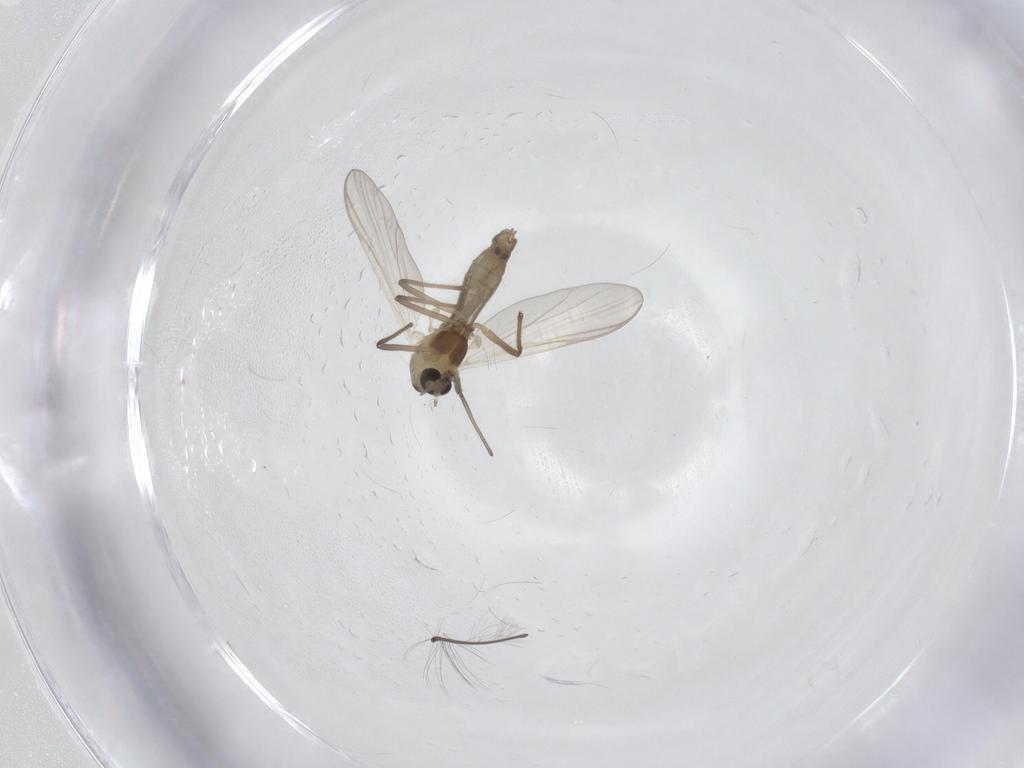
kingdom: Animalia
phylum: Arthropoda
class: Insecta
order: Diptera
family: Chironomidae
